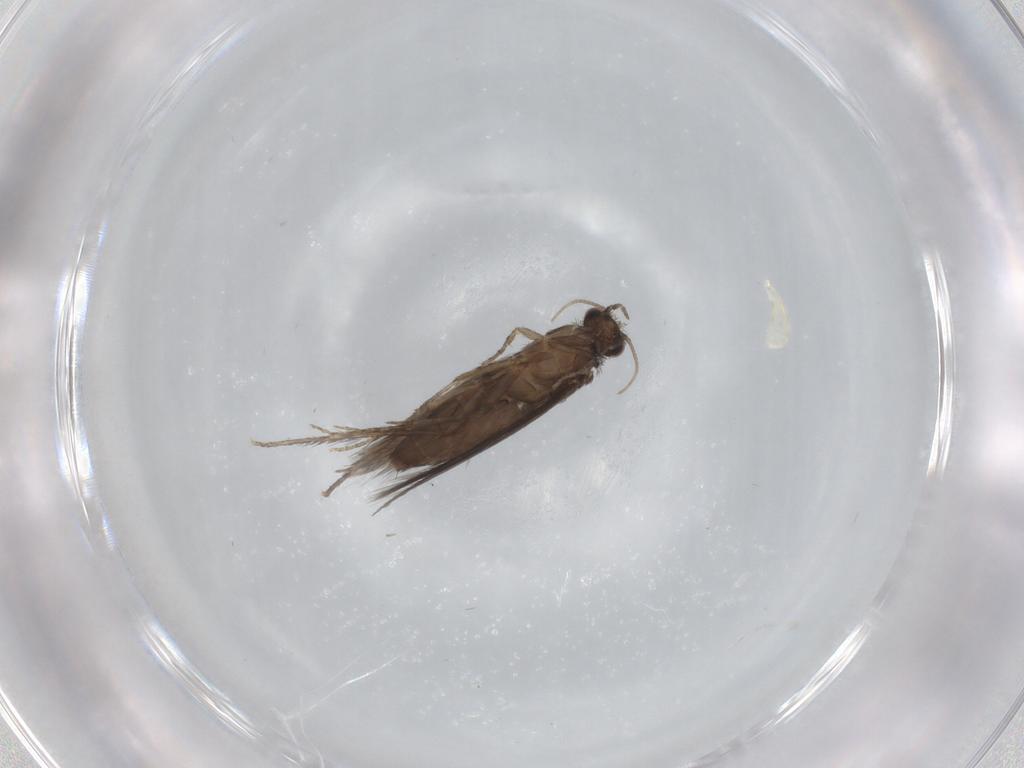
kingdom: Animalia
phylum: Arthropoda
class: Insecta
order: Trichoptera
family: Hydroptilidae
